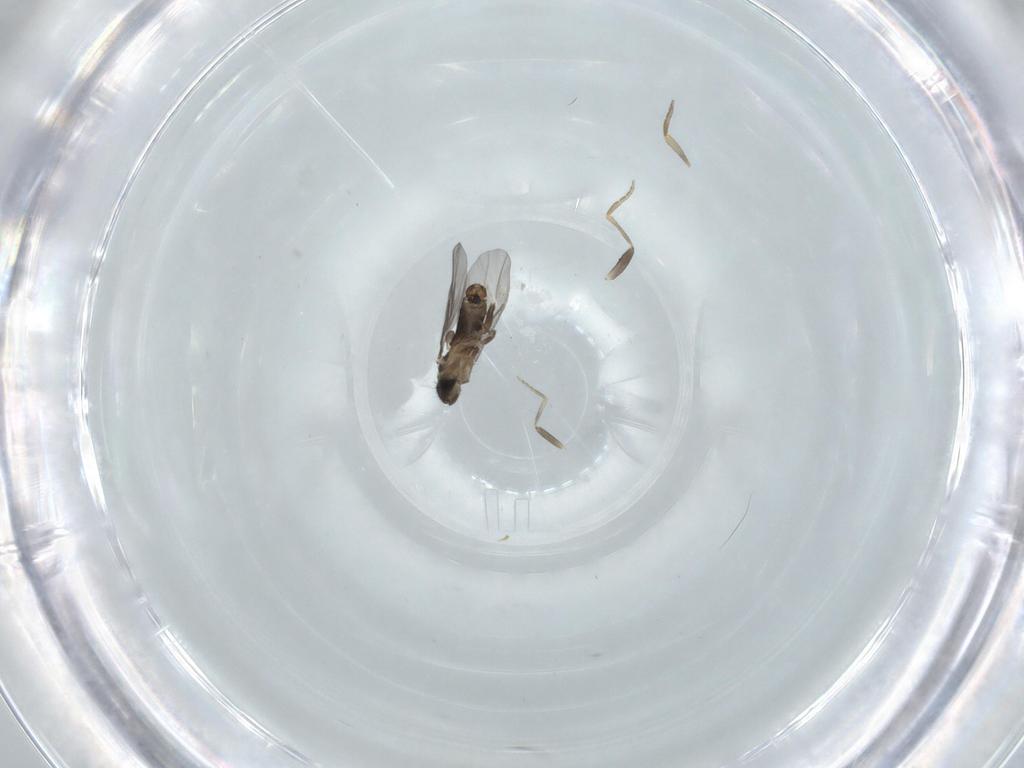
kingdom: Animalia
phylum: Arthropoda
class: Insecta
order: Diptera
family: Chironomidae
